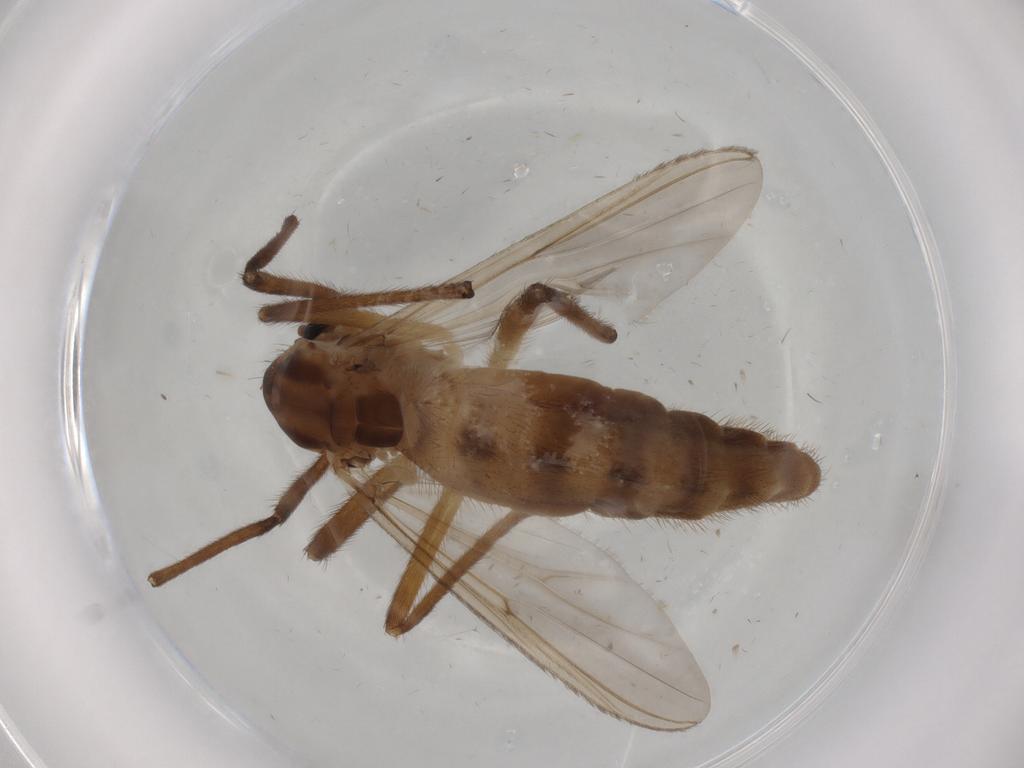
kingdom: Animalia
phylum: Arthropoda
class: Insecta
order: Diptera
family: Chironomidae
